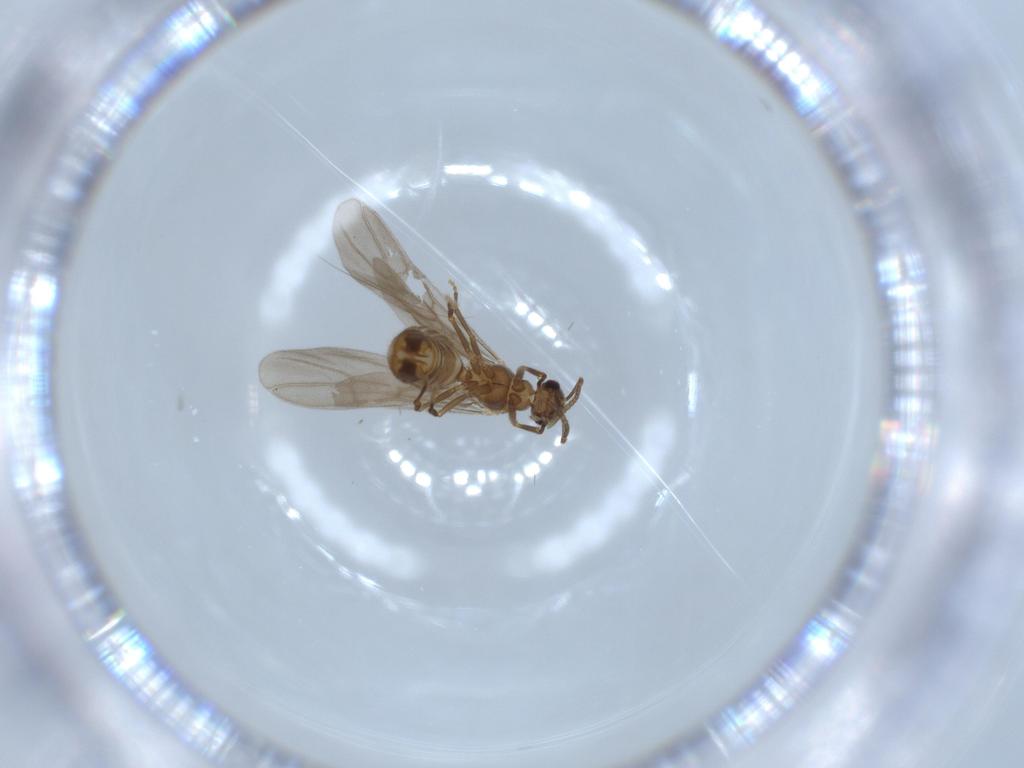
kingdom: Animalia
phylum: Arthropoda
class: Insecta
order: Hymenoptera
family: Formicidae
